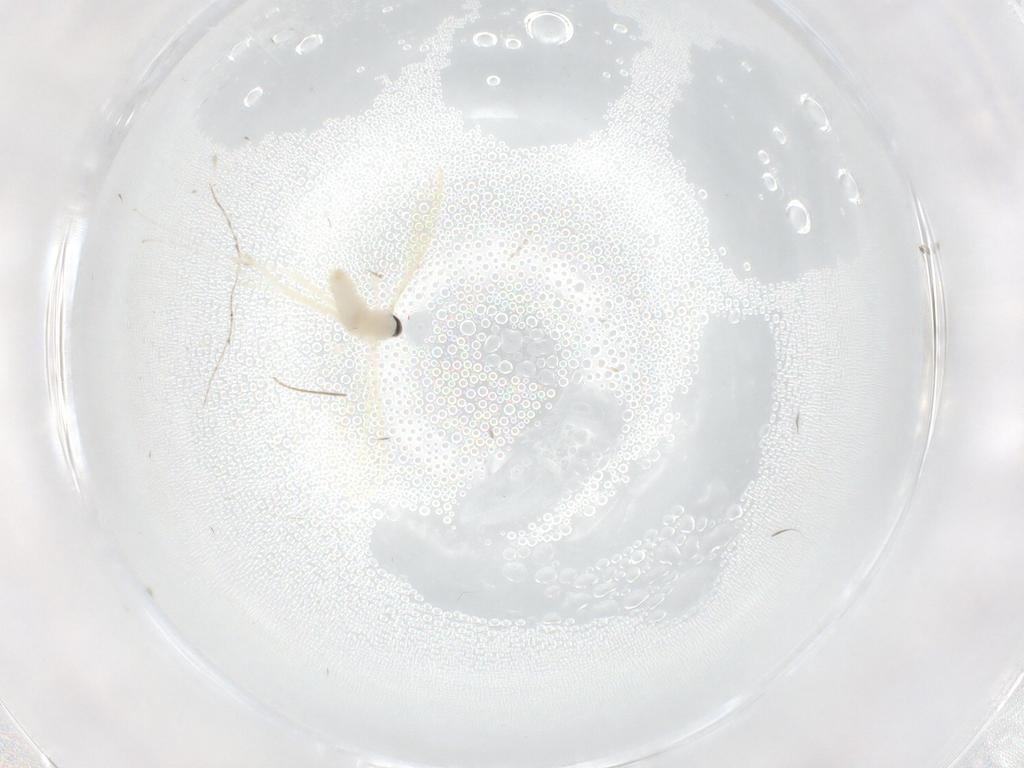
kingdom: Animalia
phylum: Arthropoda
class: Insecta
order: Diptera
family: Cecidomyiidae
